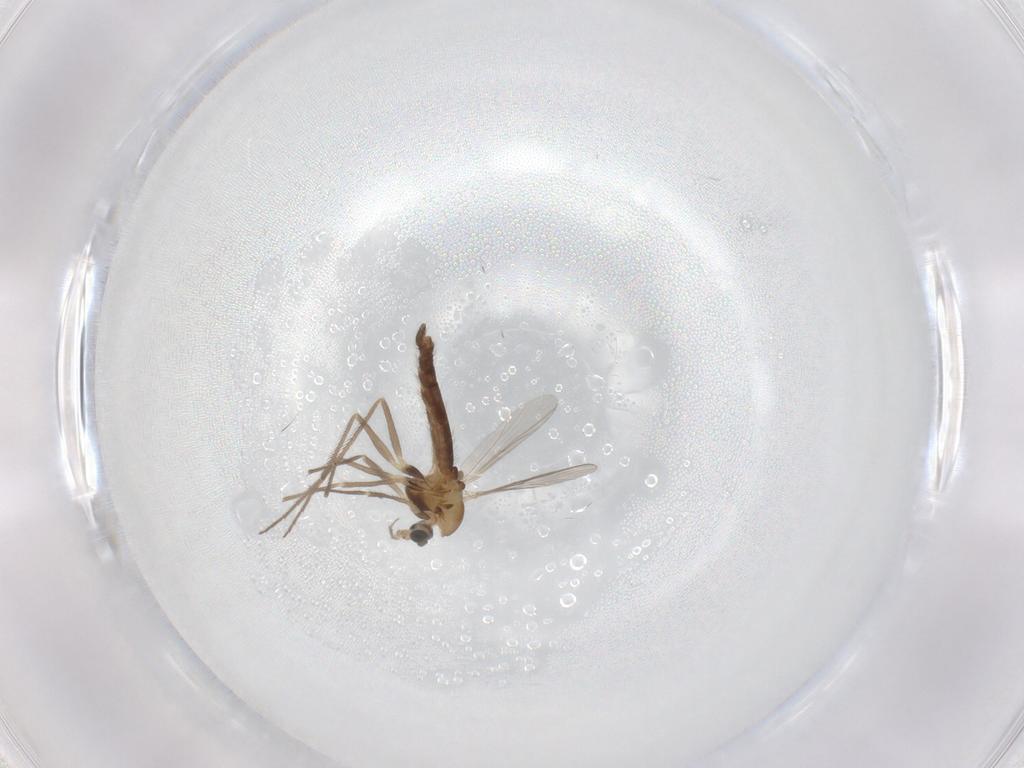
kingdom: Animalia
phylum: Arthropoda
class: Insecta
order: Diptera
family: Chironomidae
